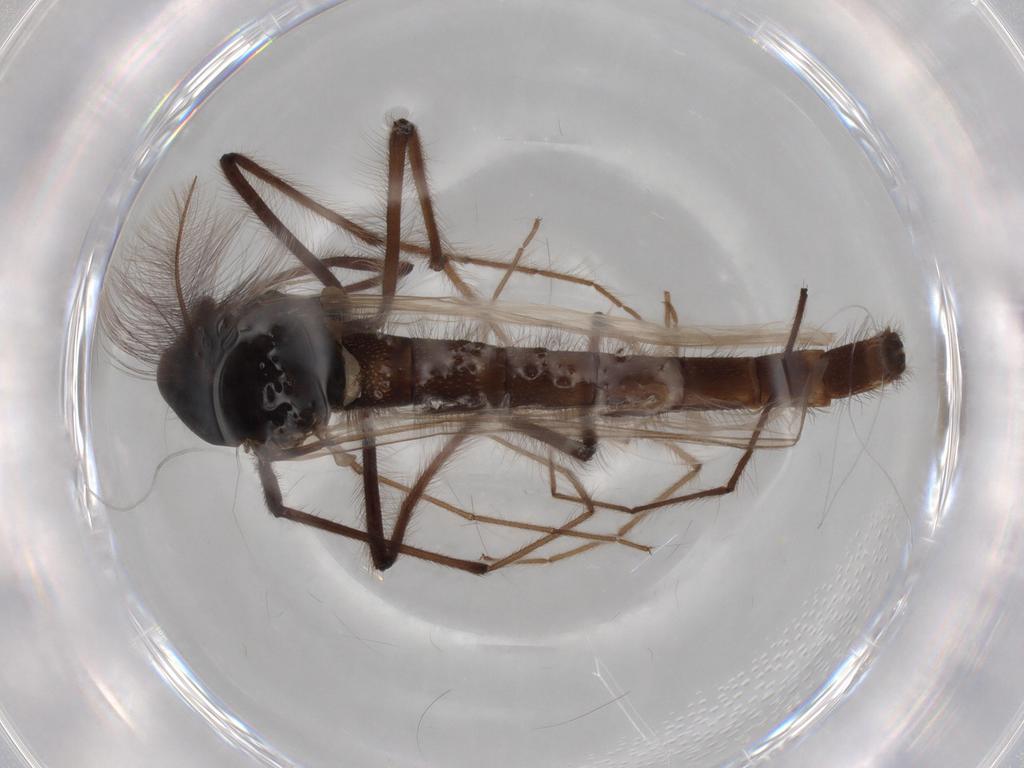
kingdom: Animalia
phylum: Arthropoda
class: Insecta
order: Diptera
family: Chironomidae
